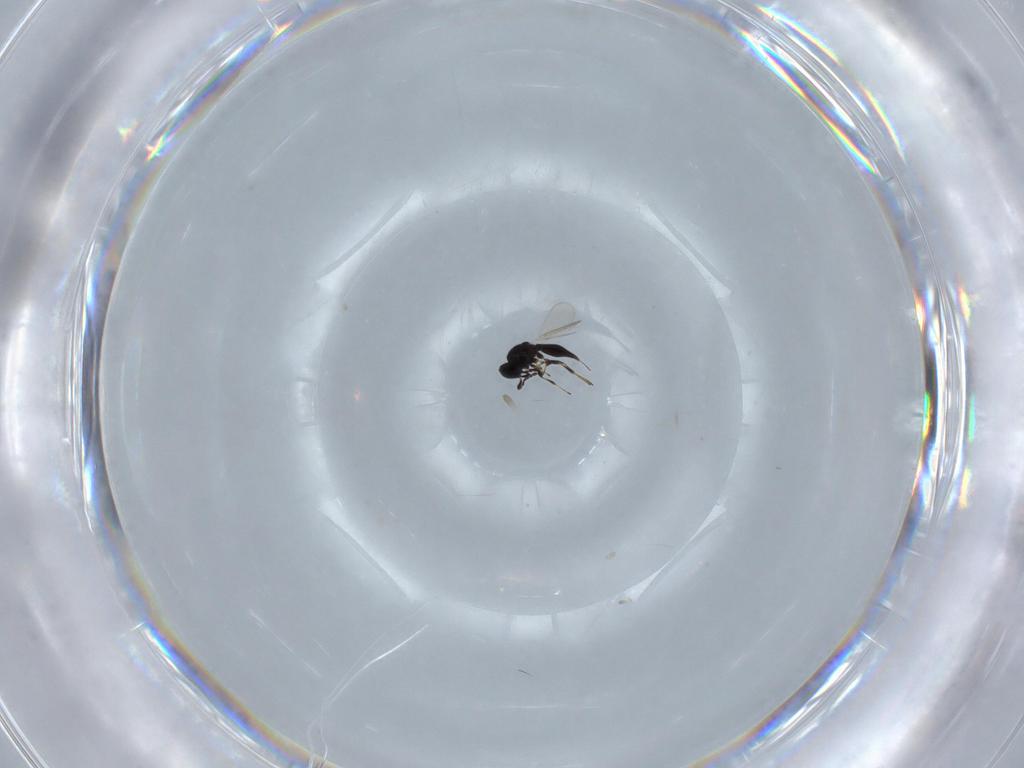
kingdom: Animalia
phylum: Arthropoda
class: Insecta
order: Hymenoptera
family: Platygastridae
